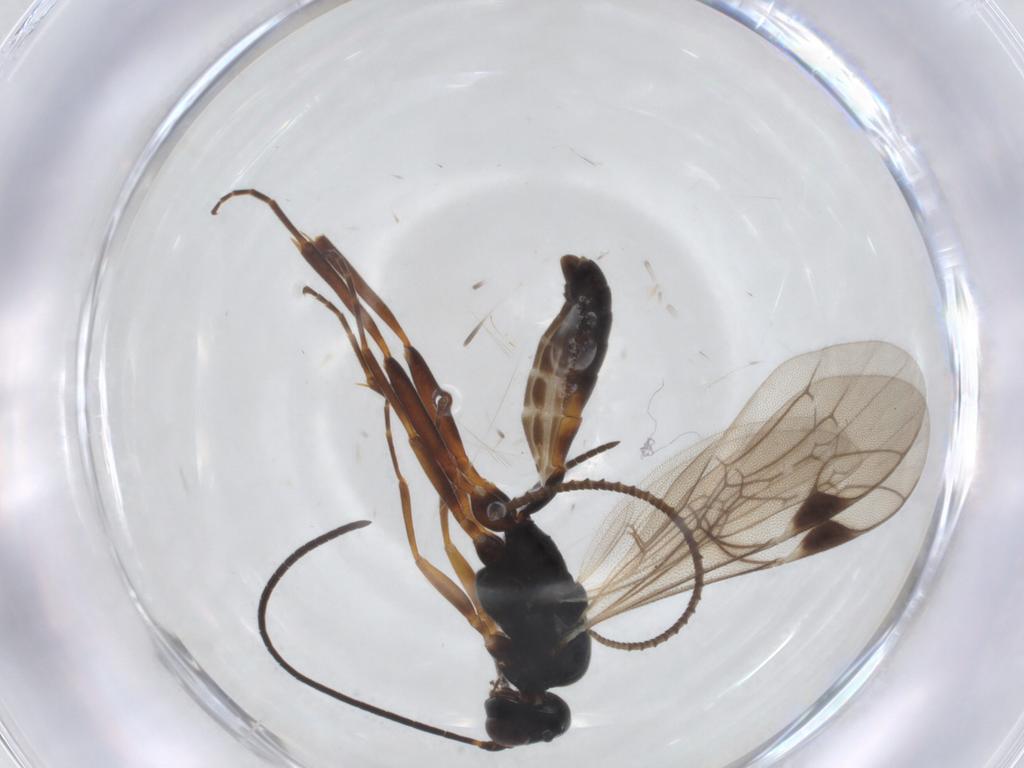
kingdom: Animalia
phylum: Arthropoda
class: Insecta
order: Hymenoptera
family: Ichneumonidae
